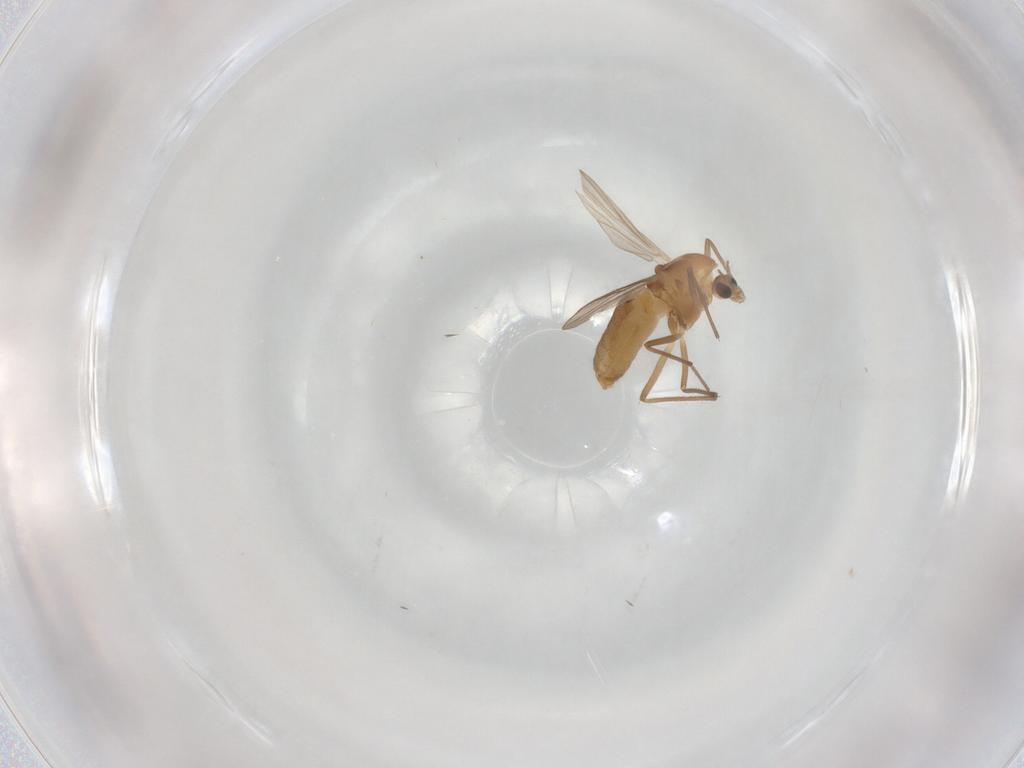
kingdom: Animalia
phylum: Arthropoda
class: Insecta
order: Diptera
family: Chironomidae
